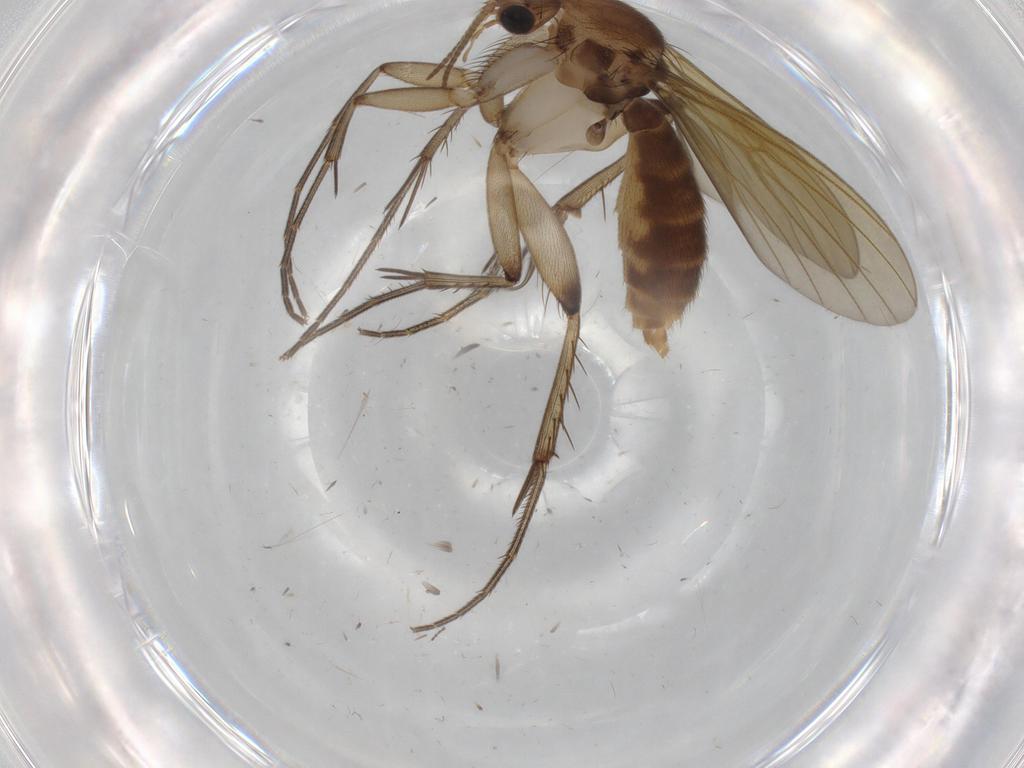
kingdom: Animalia
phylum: Arthropoda
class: Insecta
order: Diptera
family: Mycetophilidae
